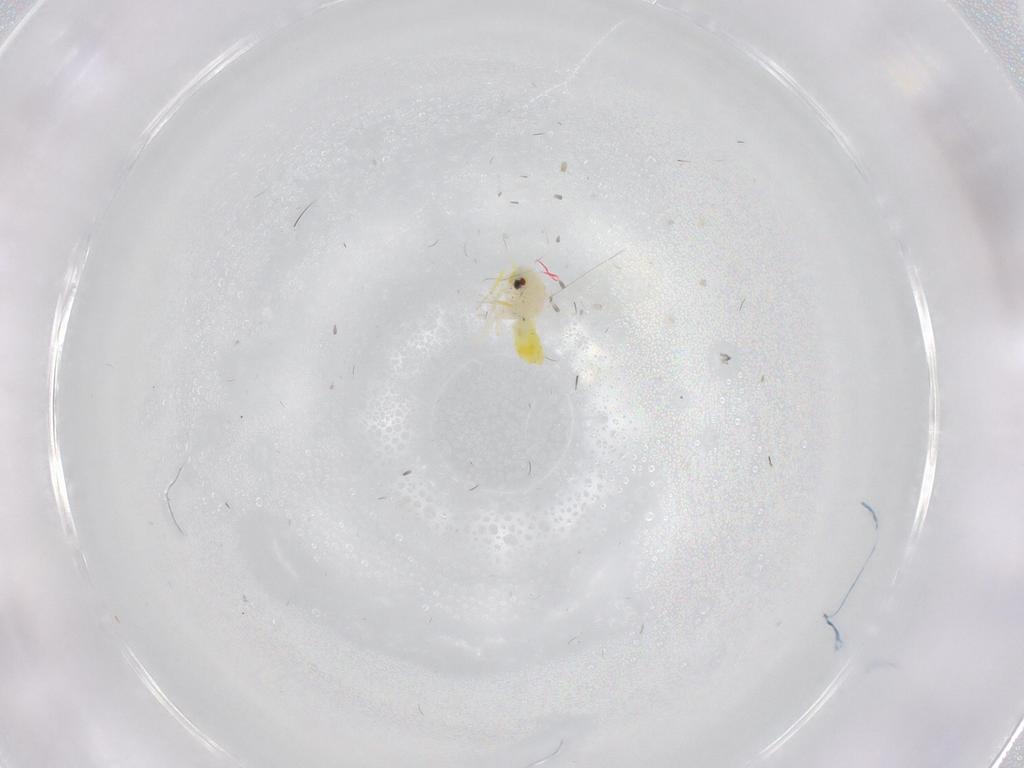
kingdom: Animalia
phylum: Arthropoda
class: Insecta
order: Hemiptera
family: Aleyrodidae
